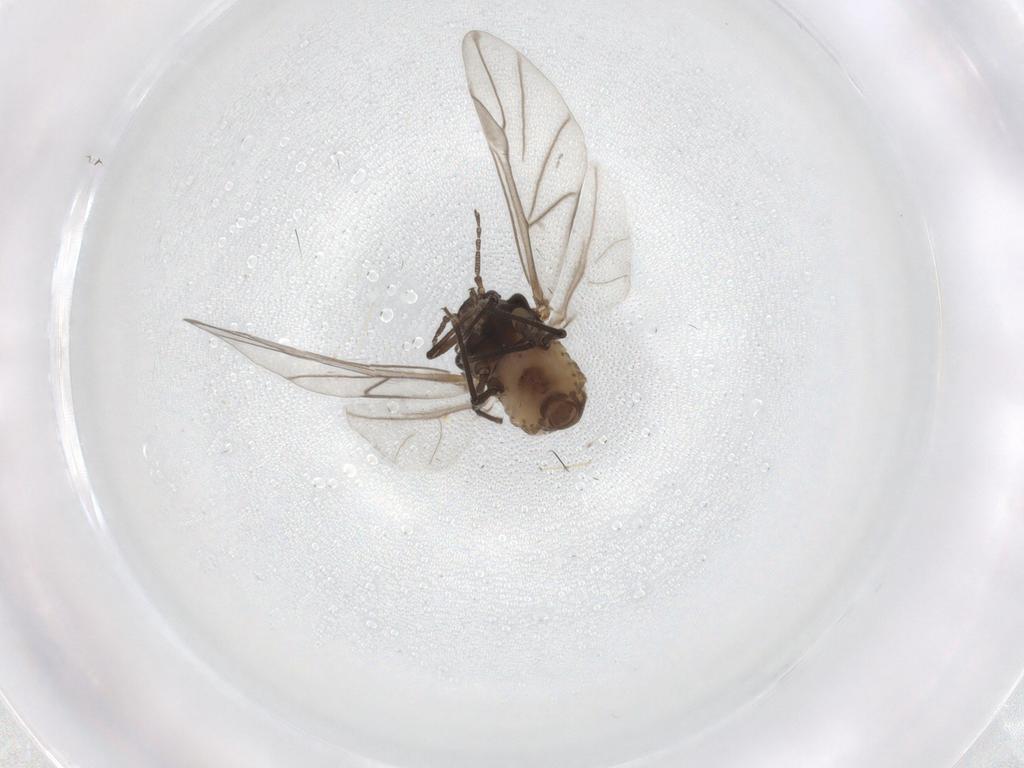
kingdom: Animalia
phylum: Arthropoda
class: Insecta
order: Hemiptera
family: Aphididae
